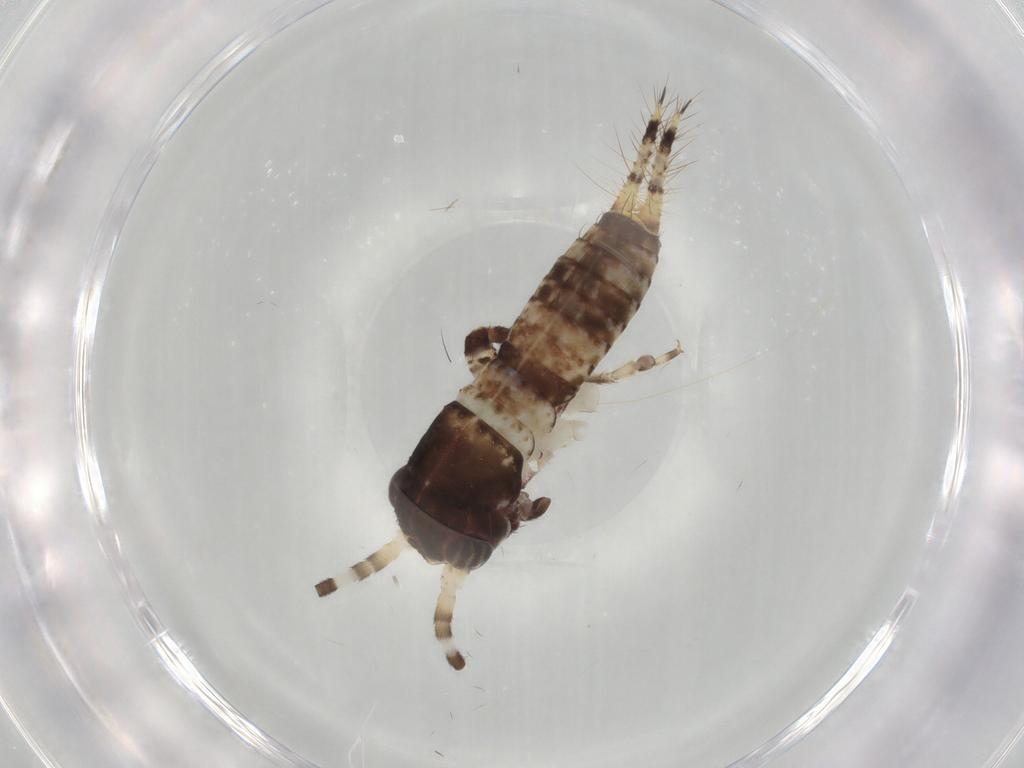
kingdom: Animalia
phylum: Arthropoda
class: Insecta
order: Orthoptera
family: Gryllidae
